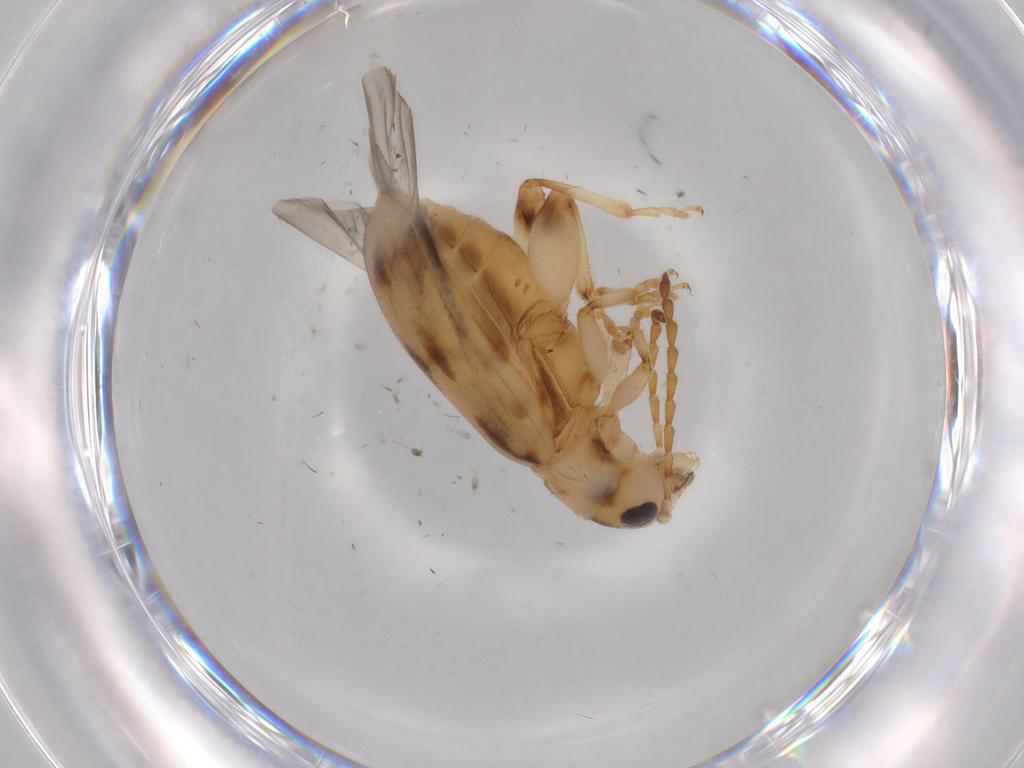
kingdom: Animalia
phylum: Arthropoda
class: Insecta
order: Coleoptera
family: Chrysomelidae
